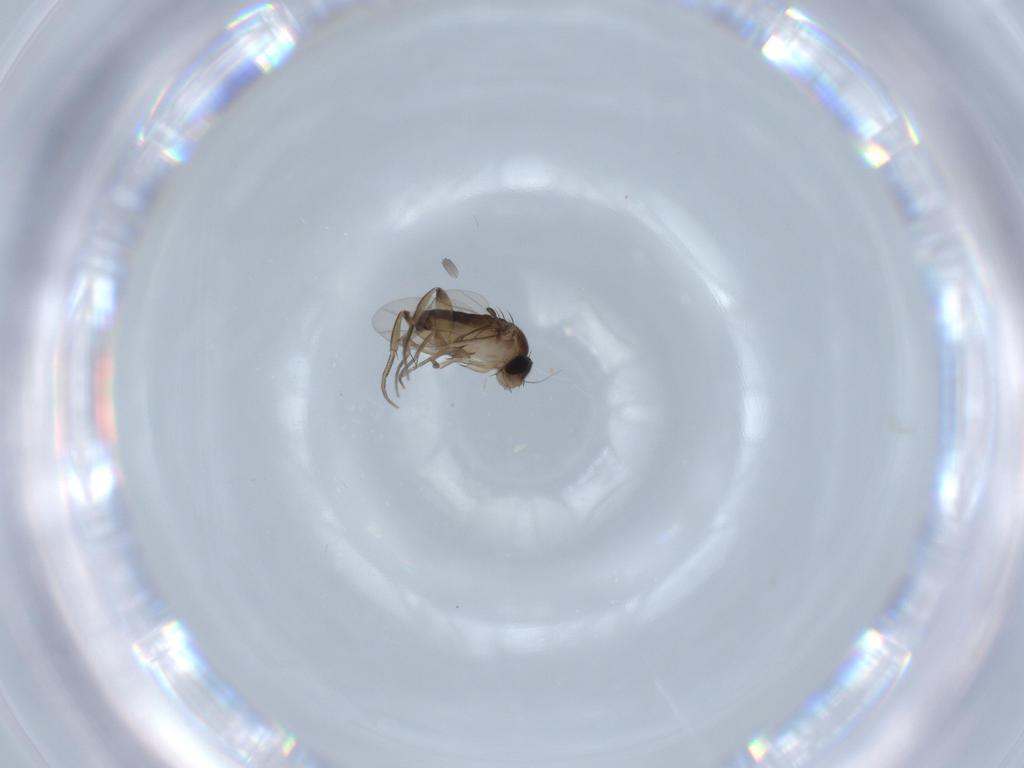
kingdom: Animalia
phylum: Arthropoda
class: Insecta
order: Diptera
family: Phoridae
